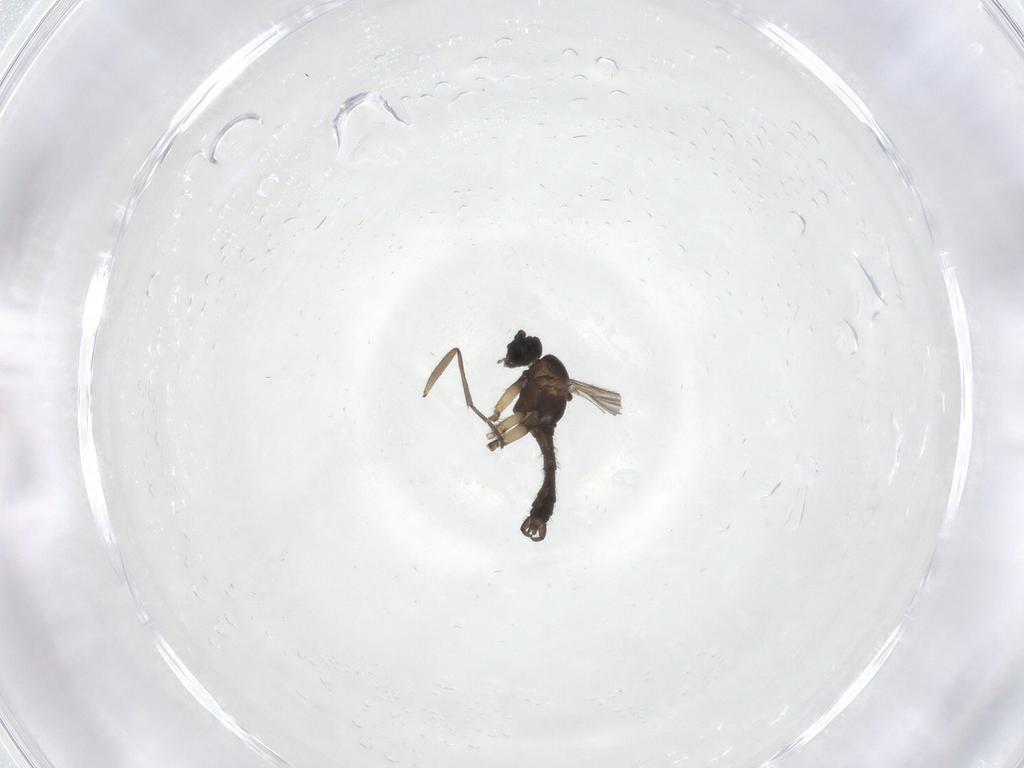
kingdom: Animalia
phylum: Arthropoda
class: Insecta
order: Diptera
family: Sciaridae
